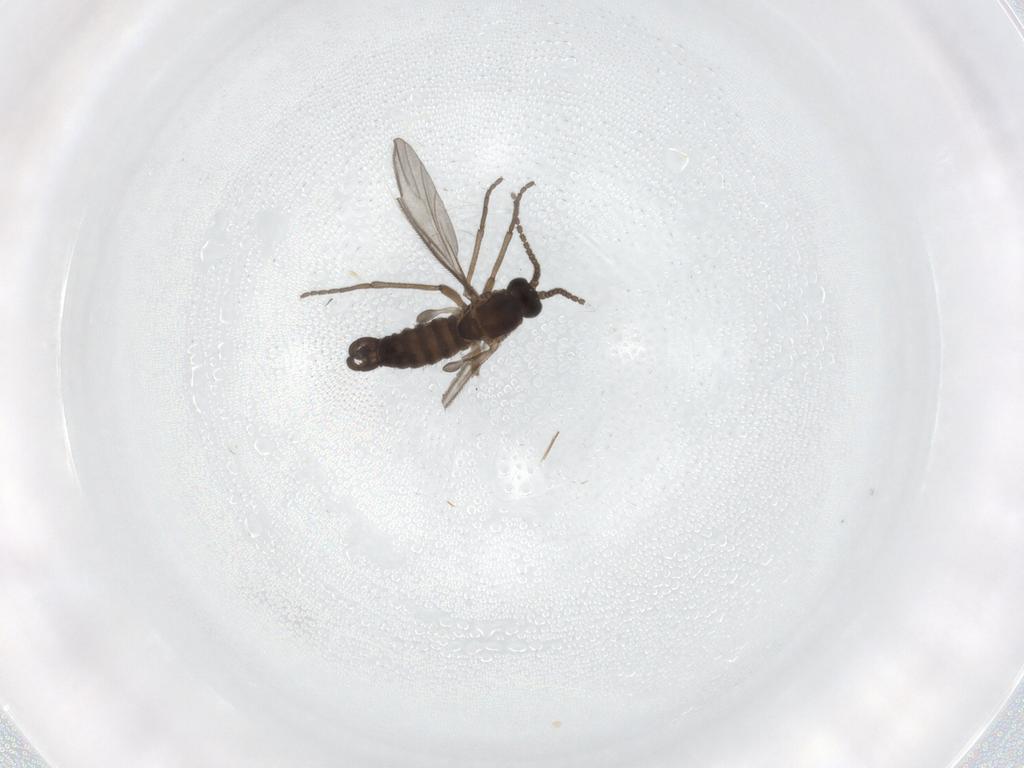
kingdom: Animalia
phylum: Arthropoda
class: Insecta
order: Diptera
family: Sciaridae
